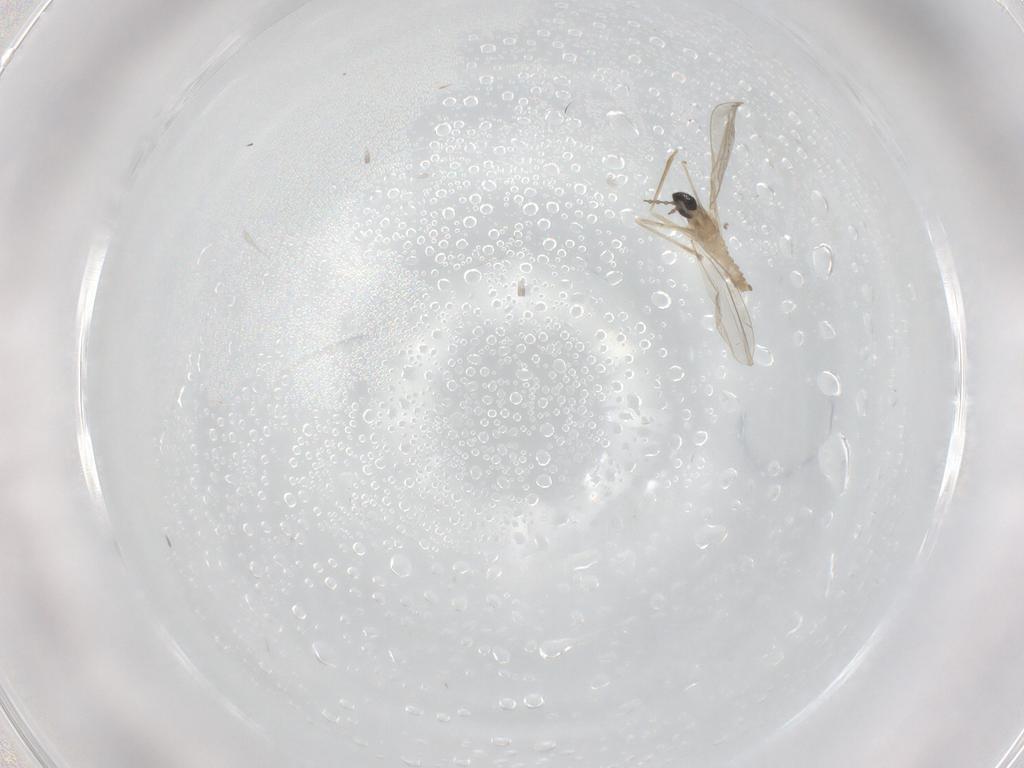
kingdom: Animalia
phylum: Arthropoda
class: Insecta
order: Diptera
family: Cecidomyiidae
